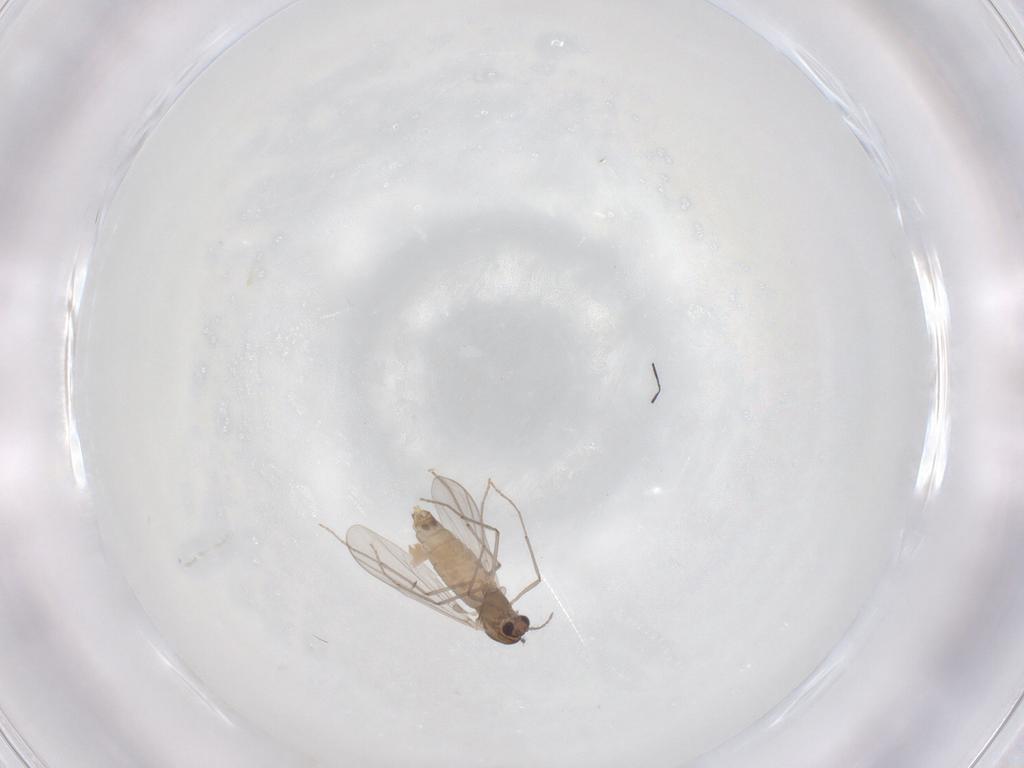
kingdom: Animalia
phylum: Arthropoda
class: Insecta
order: Diptera
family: Chironomidae
